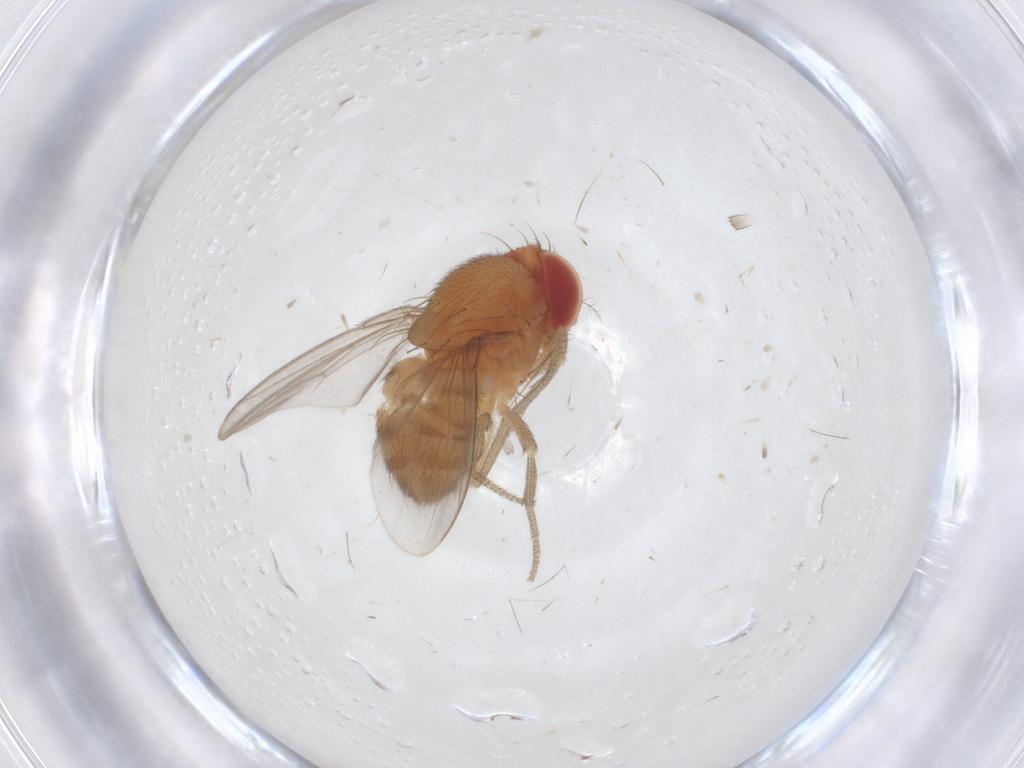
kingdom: Animalia
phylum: Arthropoda
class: Insecta
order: Diptera
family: Drosophilidae
